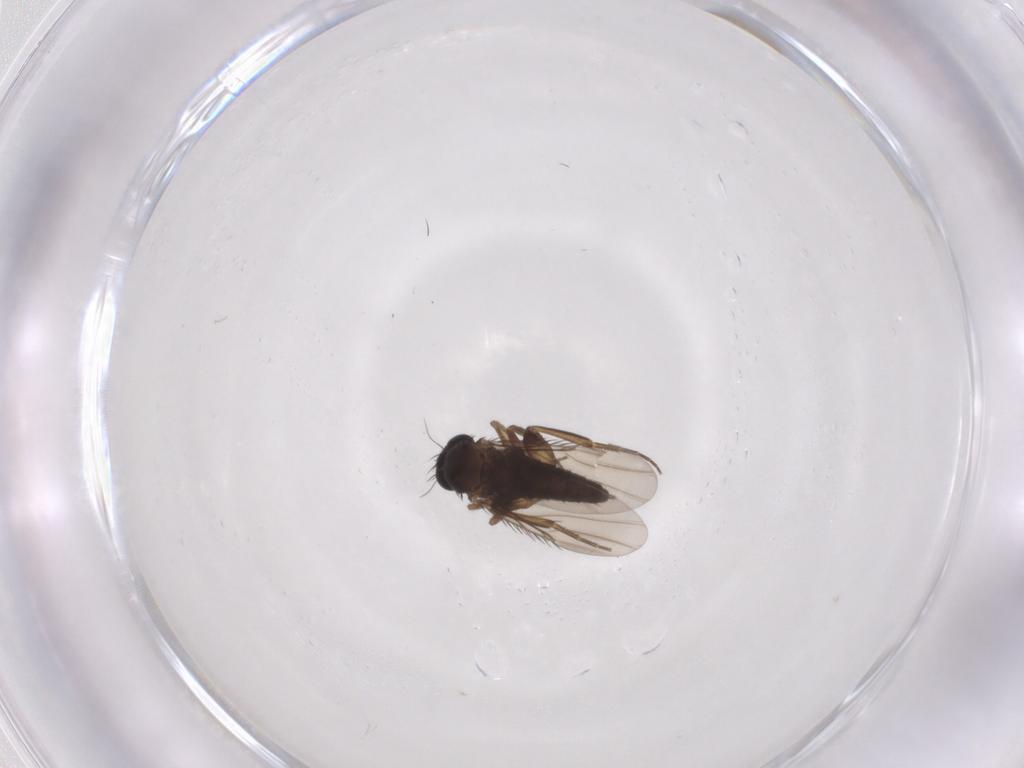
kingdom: Animalia
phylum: Arthropoda
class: Insecta
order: Diptera
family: Phoridae
